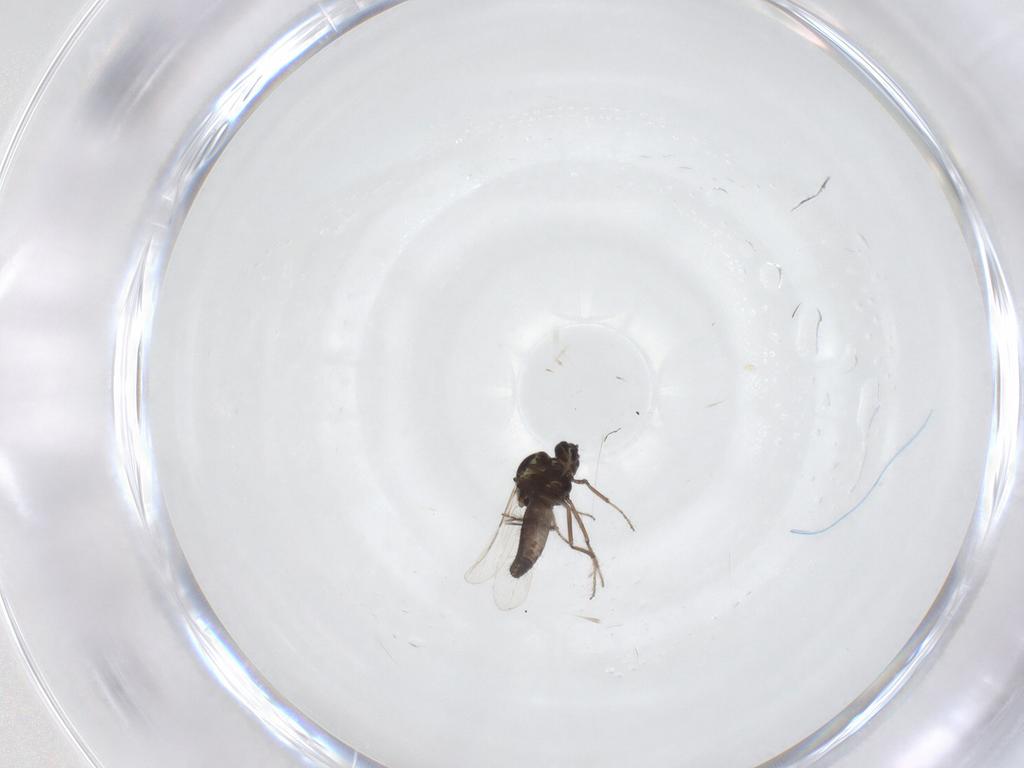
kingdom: Animalia
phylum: Arthropoda
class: Insecta
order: Diptera
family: Ceratopogonidae
